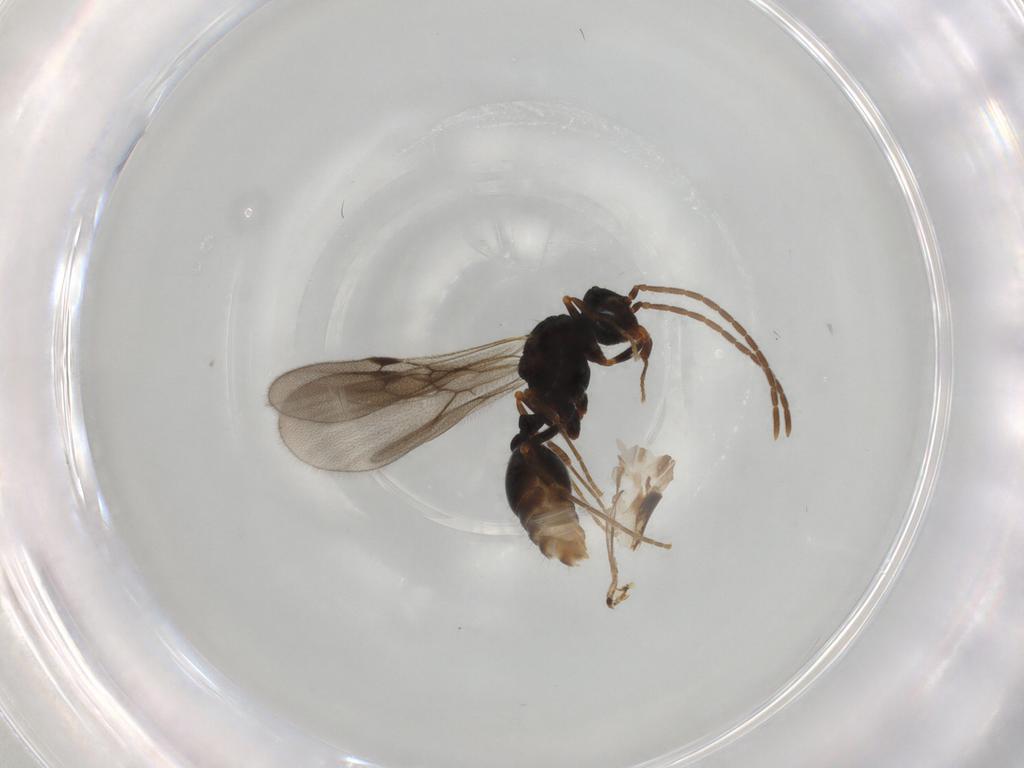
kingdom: Animalia
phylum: Arthropoda
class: Insecta
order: Hymenoptera
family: Formicidae
